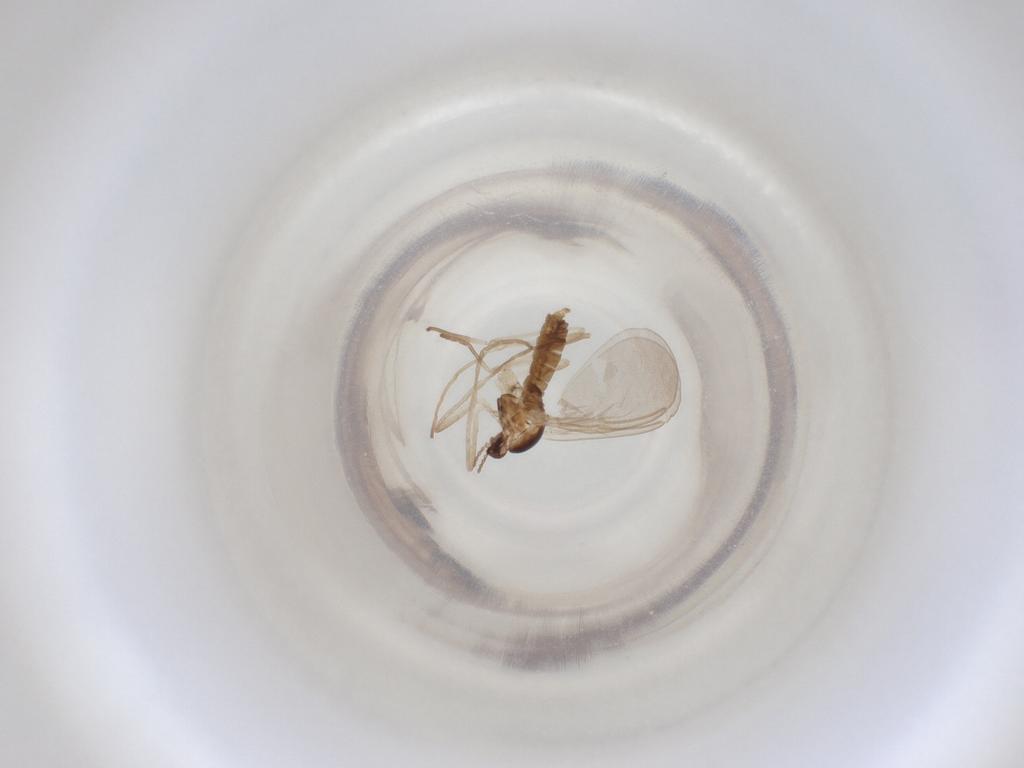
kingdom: Animalia
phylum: Arthropoda
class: Insecta
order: Diptera
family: Cecidomyiidae
